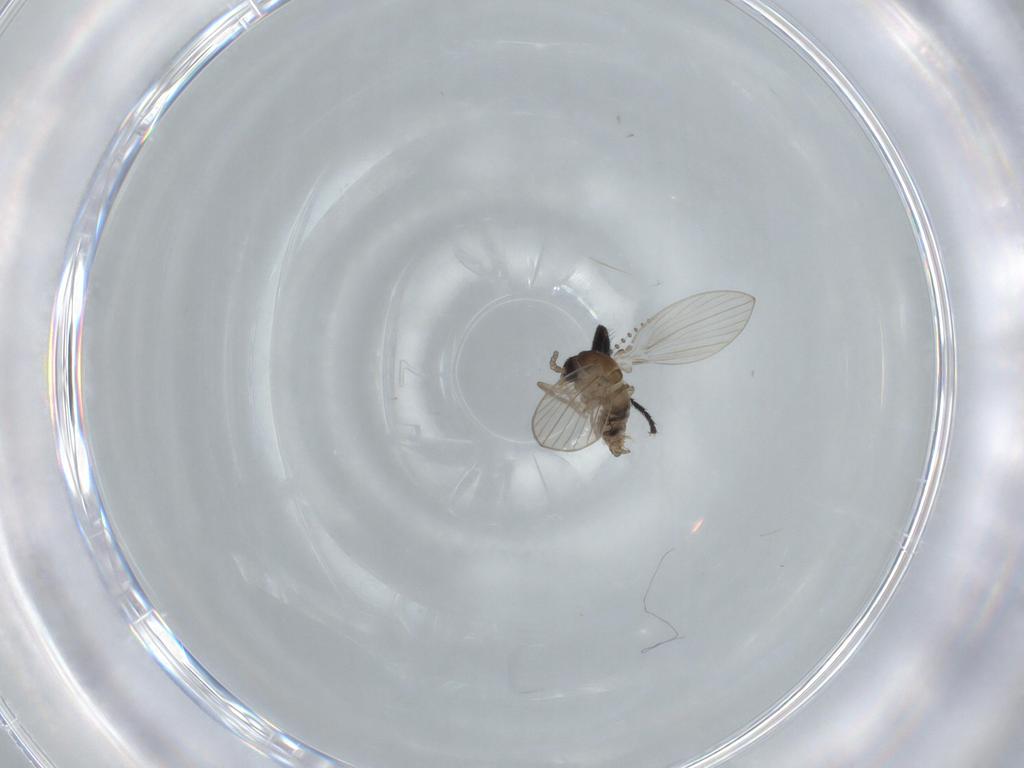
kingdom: Animalia
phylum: Arthropoda
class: Insecta
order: Diptera
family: Psychodidae
